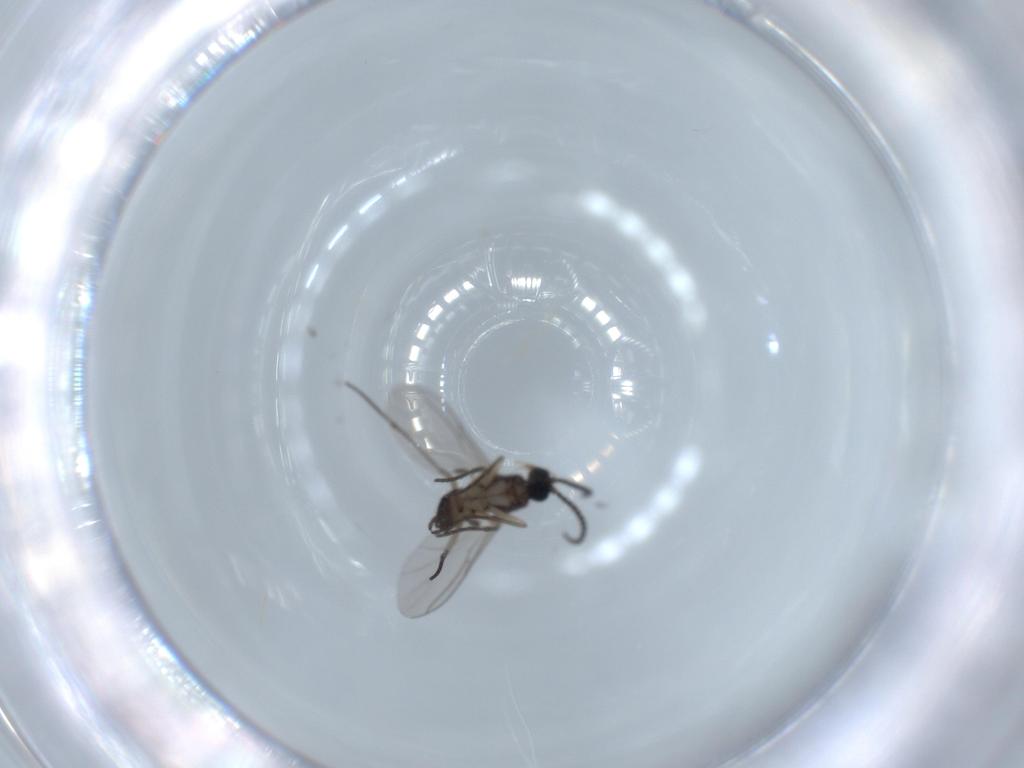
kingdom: Animalia
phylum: Arthropoda
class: Insecta
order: Diptera
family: Sciaridae
